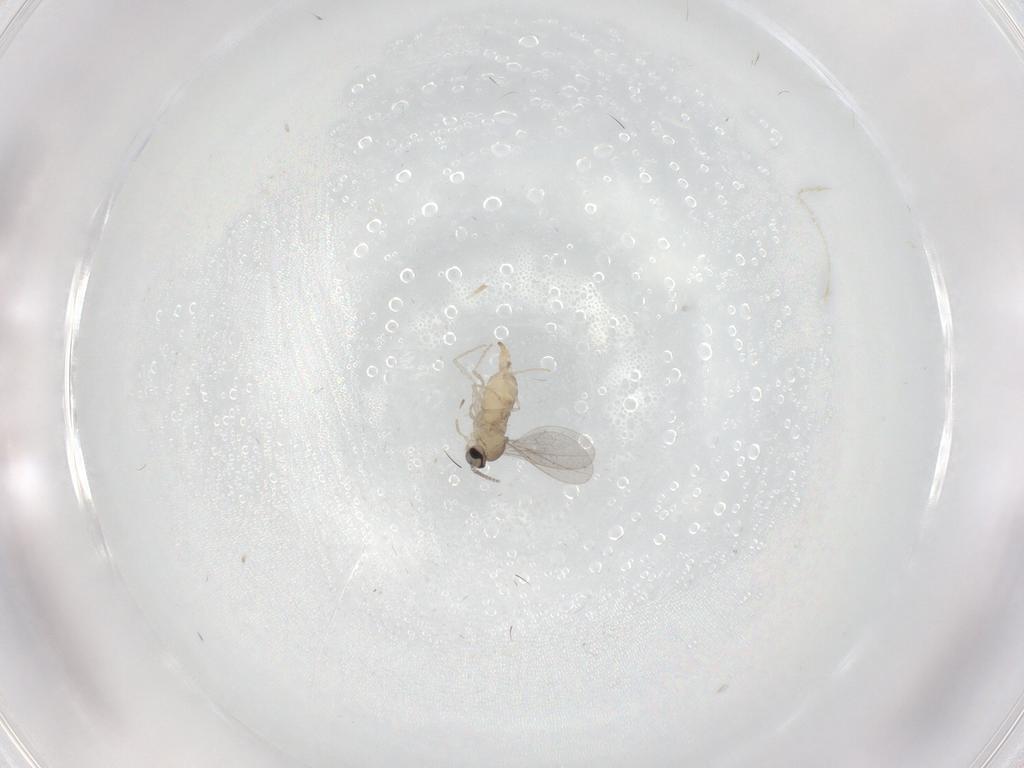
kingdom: Animalia
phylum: Arthropoda
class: Insecta
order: Diptera
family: Cecidomyiidae
